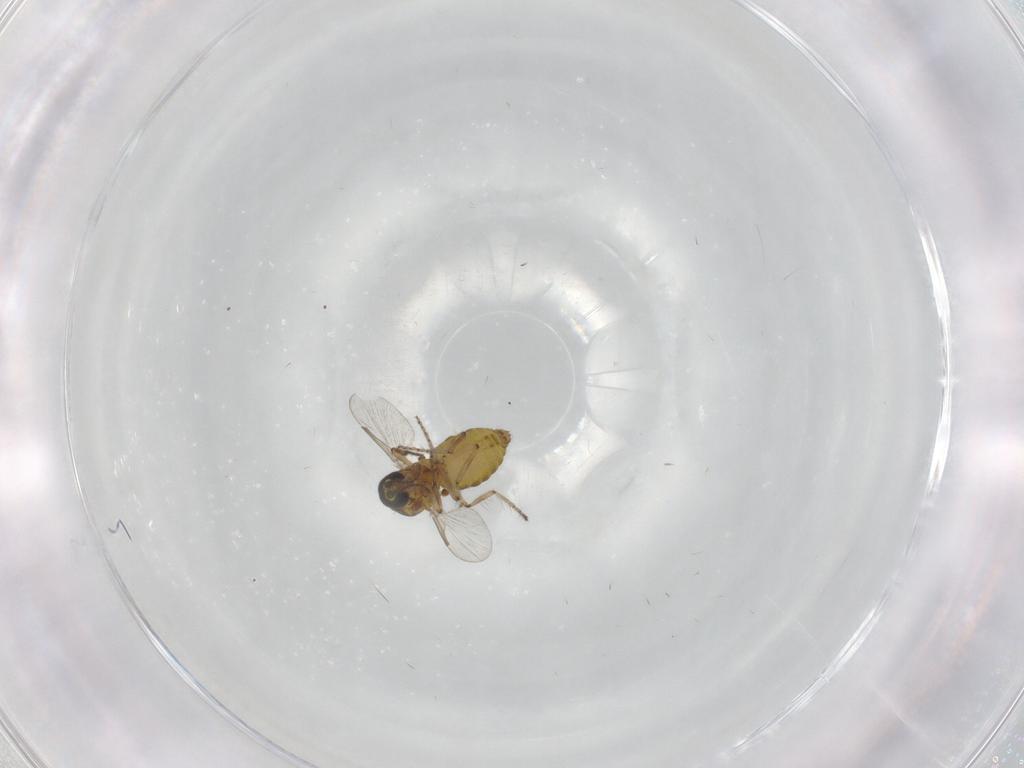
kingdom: Animalia
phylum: Arthropoda
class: Insecta
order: Diptera
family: Ceratopogonidae
